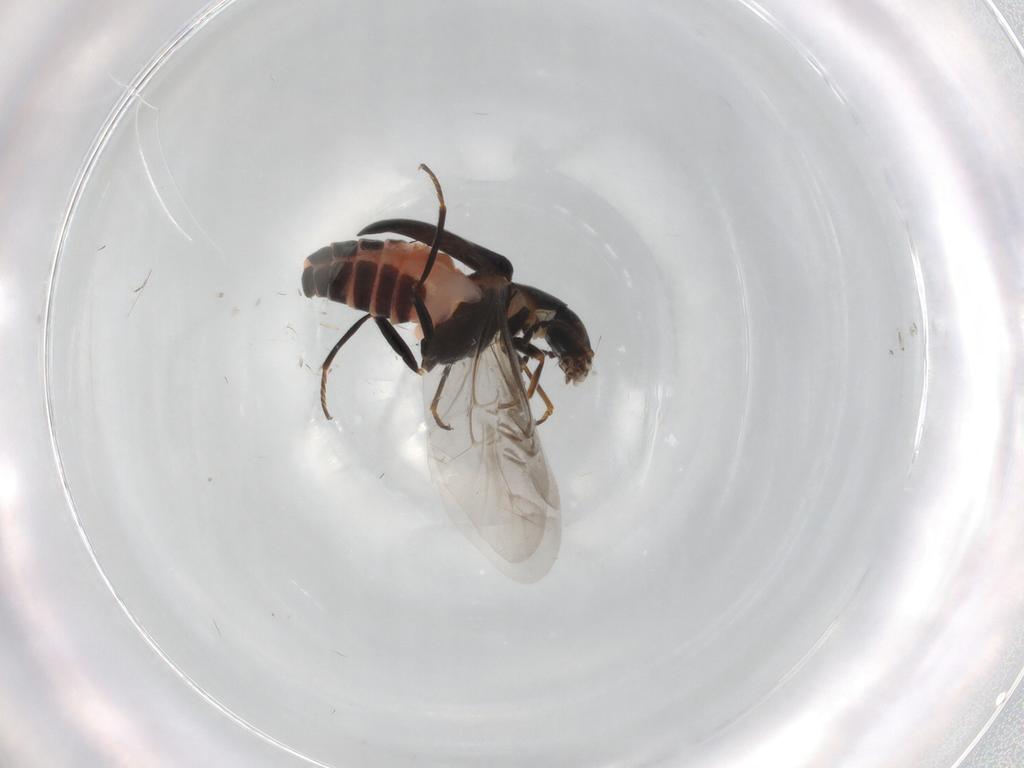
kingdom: Animalia
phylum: Arthropoda
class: Insecta
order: Coleoptera
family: Melyridae
